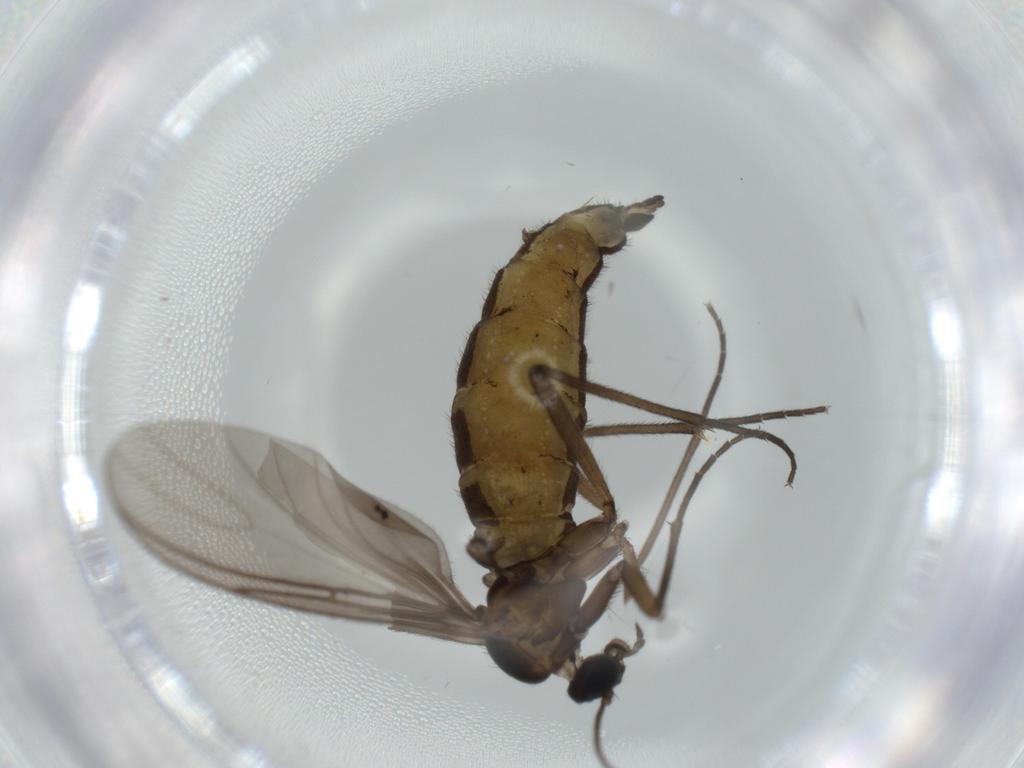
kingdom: Animalia
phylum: Arthropoda
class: Insecta
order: Diptera
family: Sciaridae
